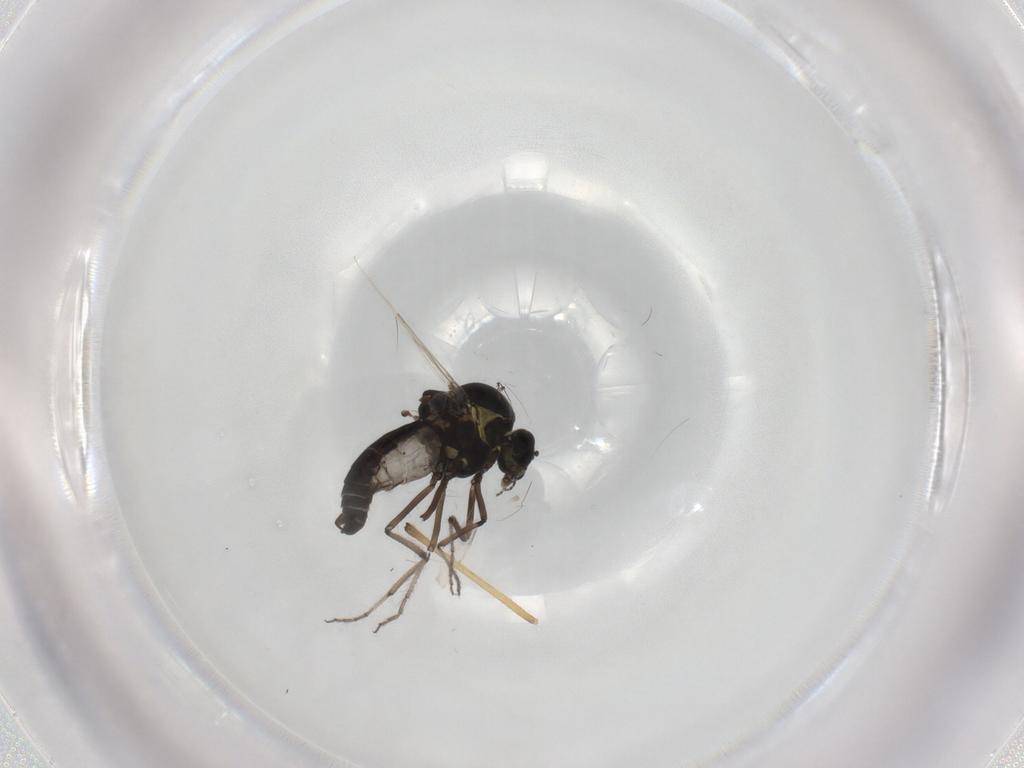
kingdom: Animalia
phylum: Arthropoda
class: Insecta
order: Diptera
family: Ceratopogonidae
